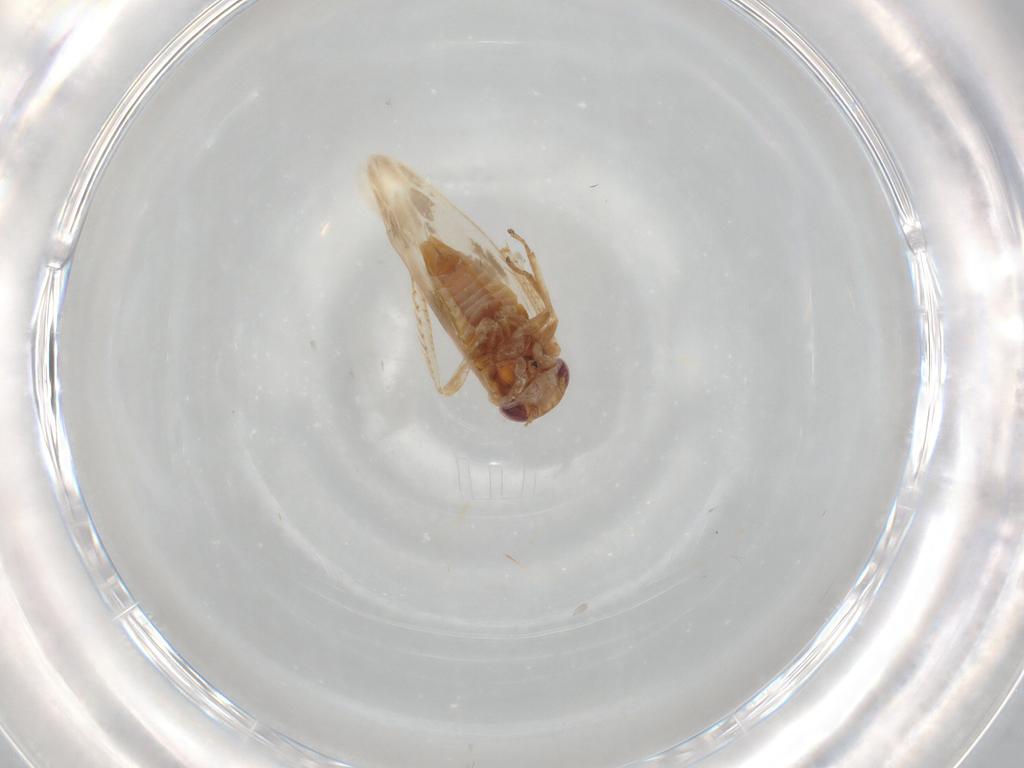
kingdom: Animalia
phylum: Arthropoda
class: Insecta
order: Hemiptera
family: Cicadellidae
